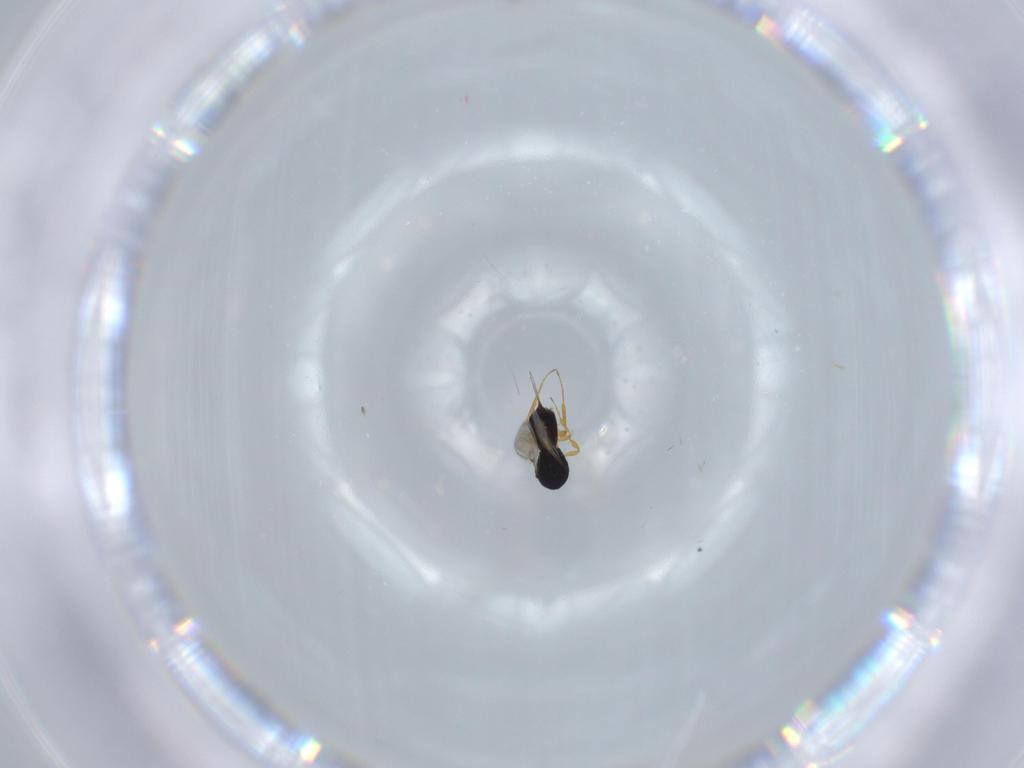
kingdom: Animalia
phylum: Arthropoda
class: Insecta
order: Hymenoptera
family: Scelionidae
